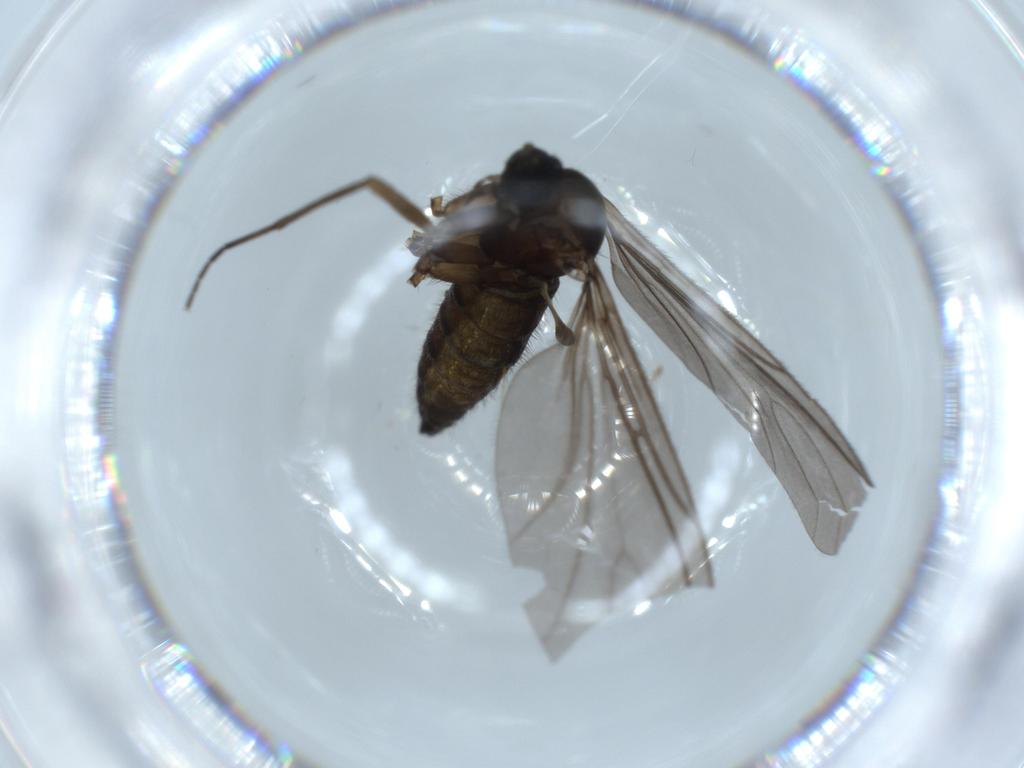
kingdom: Animalia
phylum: Arthropoda
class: Insecta
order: Diptera
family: Sciaridae
